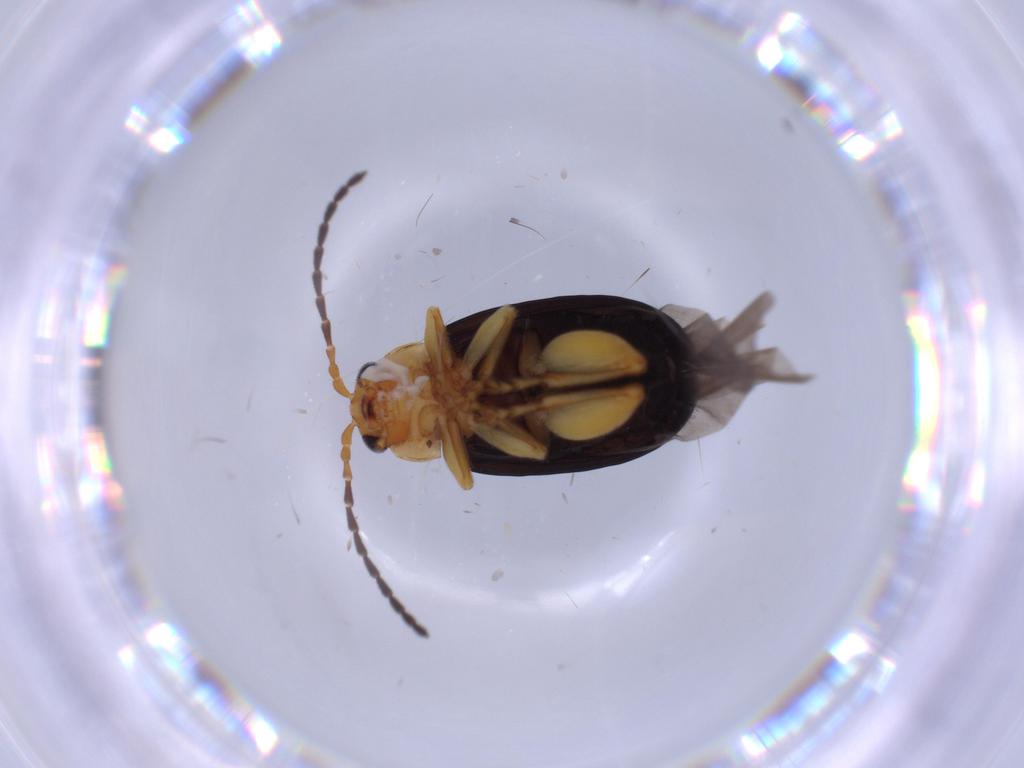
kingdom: Animalia
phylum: Arthropoda
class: Insecta
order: Coleoptera
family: Chrysomelidae
